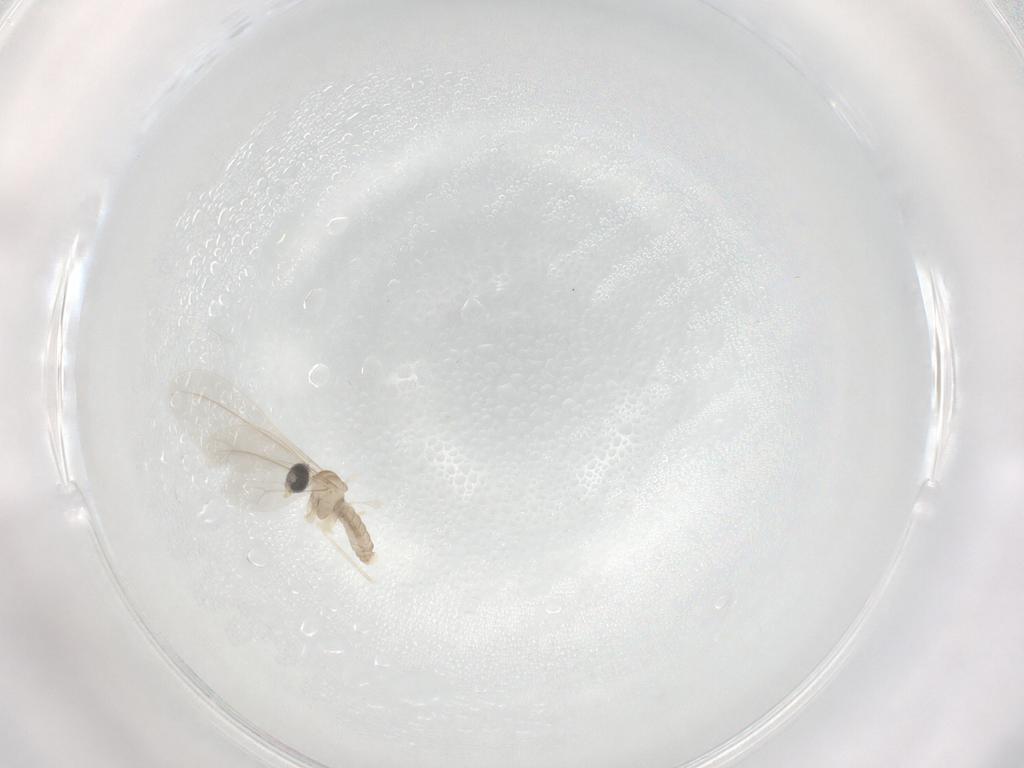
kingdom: Animalia
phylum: Arthropoda
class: Insecta
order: Diptera
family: Cecidomyiidae
